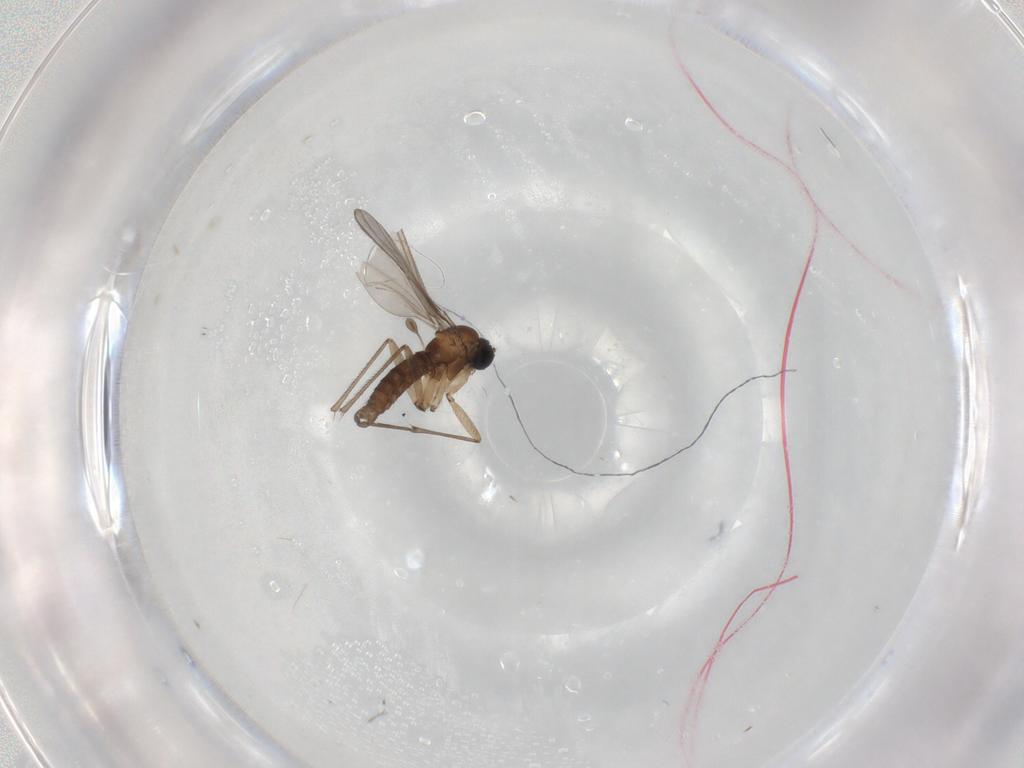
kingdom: Animalia
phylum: Arthropoda
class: Insecta
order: Diptera
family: Sciaridae
